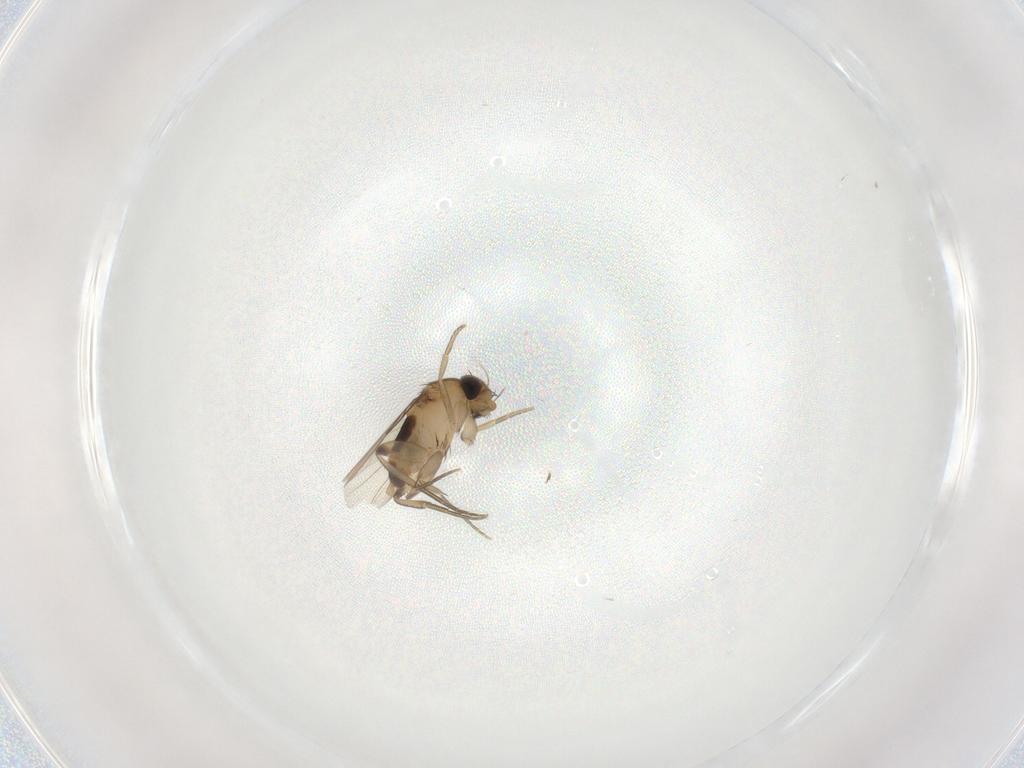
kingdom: Animalia
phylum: Arthropoda
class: Insecta
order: Diptera
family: Phoridae
